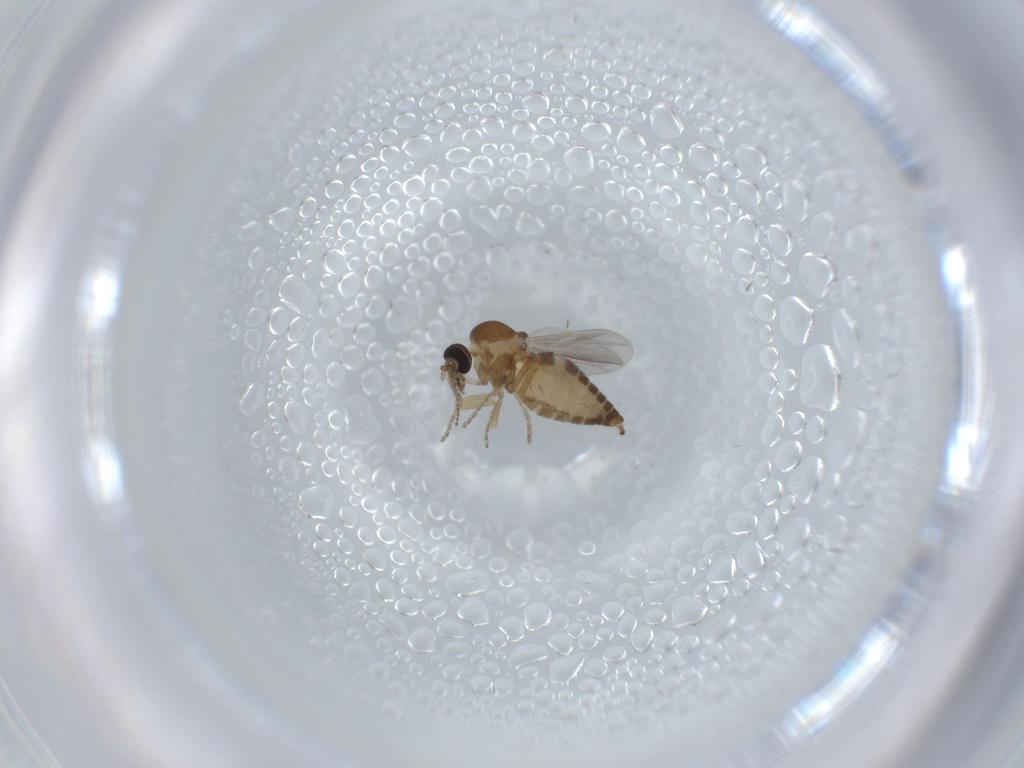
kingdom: Animalia
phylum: Arthropoda
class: Insecta
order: Diptera
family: Ceratopogonidae
